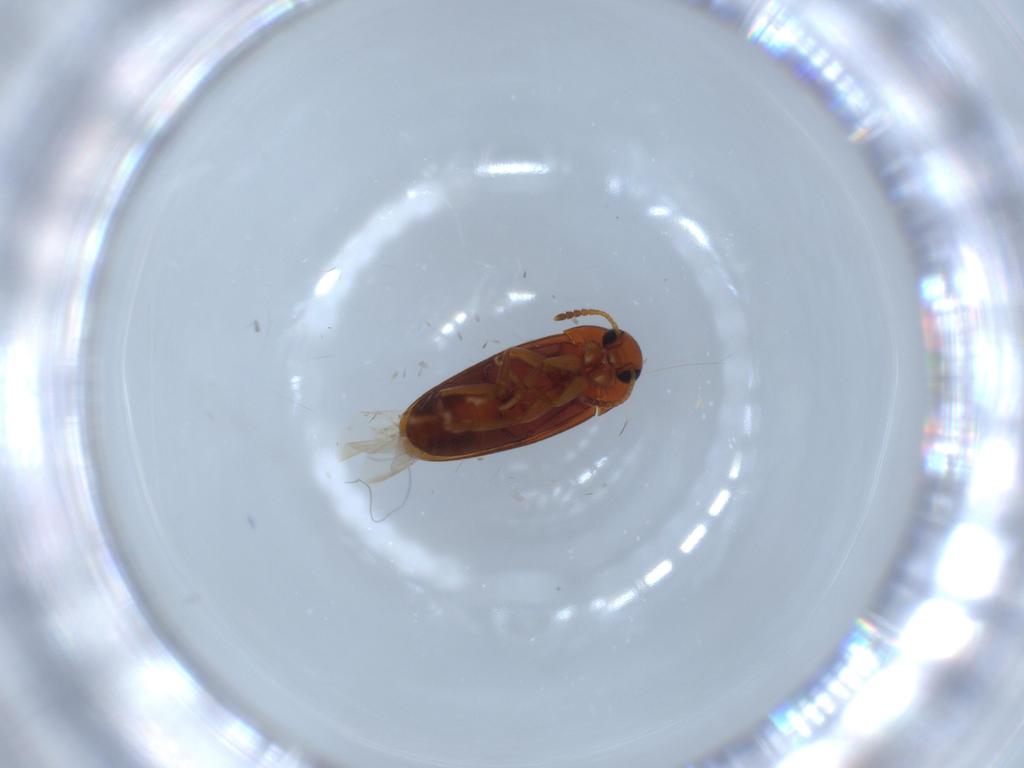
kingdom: Animalia
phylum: Arthropoda
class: Insecta
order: Coleoptera
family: Scraptiidae
